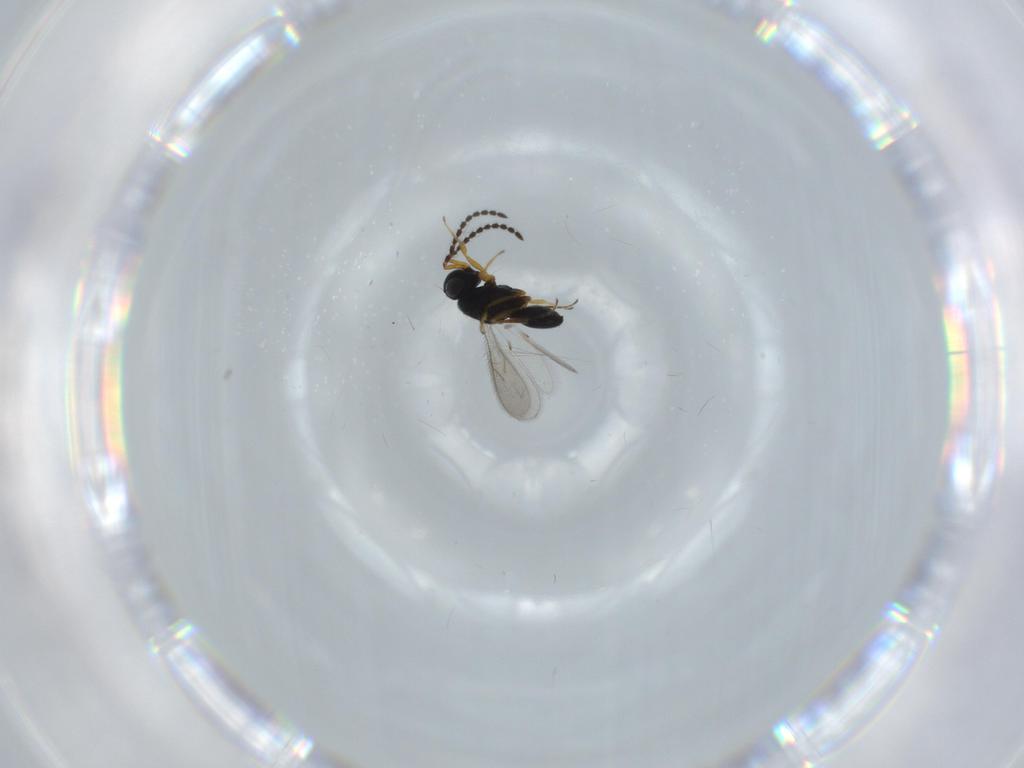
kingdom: Animalia
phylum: Arthropoda
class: Insecta
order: Hymenoptera
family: Scelionidae
